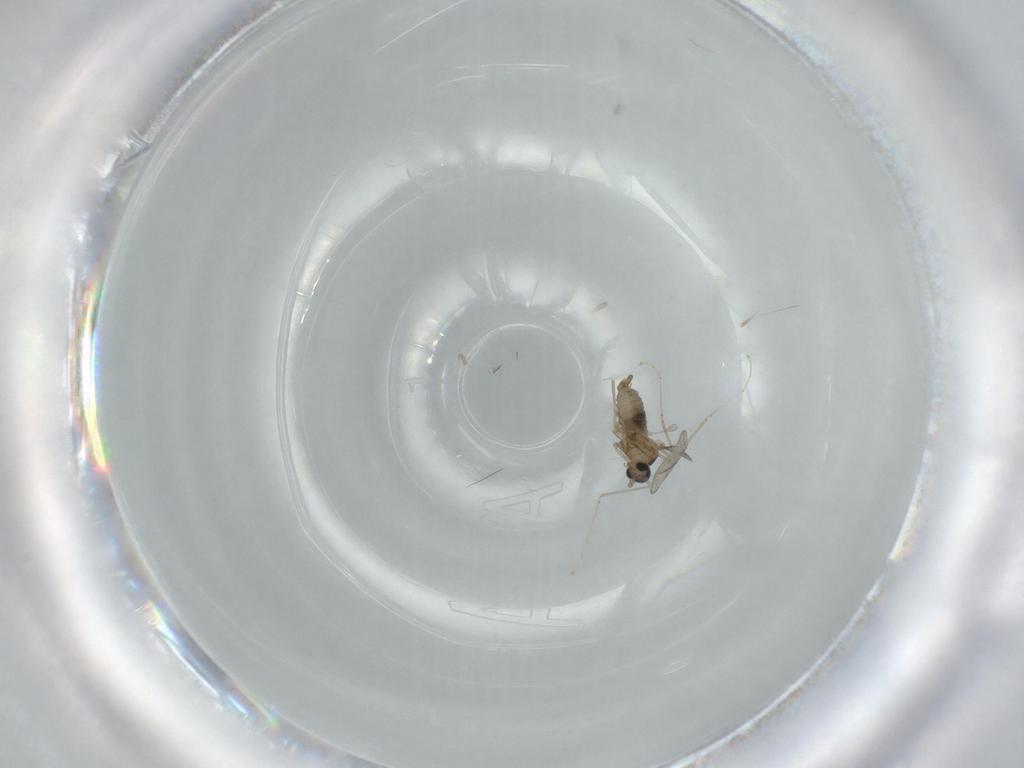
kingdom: Animalia
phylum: Arthropoda
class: Insecta
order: Diptera
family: Cecidomyiidae
